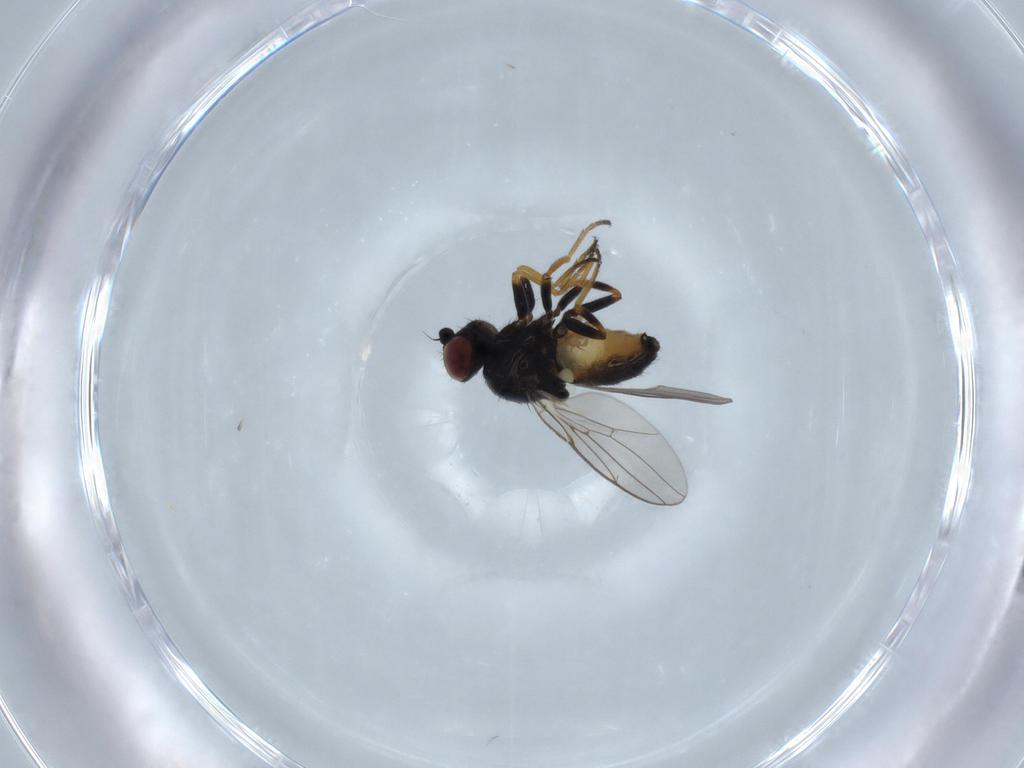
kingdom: Animalia
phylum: Arthropoda
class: Insecta
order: Diptera
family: Chloropidae
